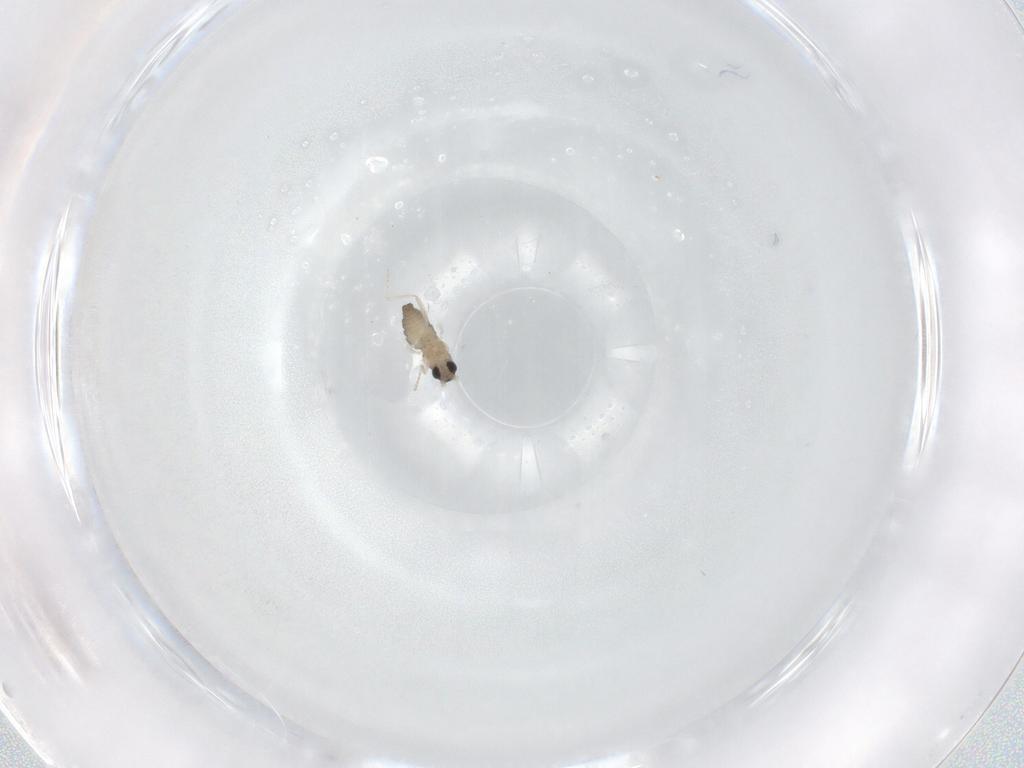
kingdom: Animalia
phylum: Arthropoda
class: Insecta
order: Diptera
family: Cecidomyiidae
